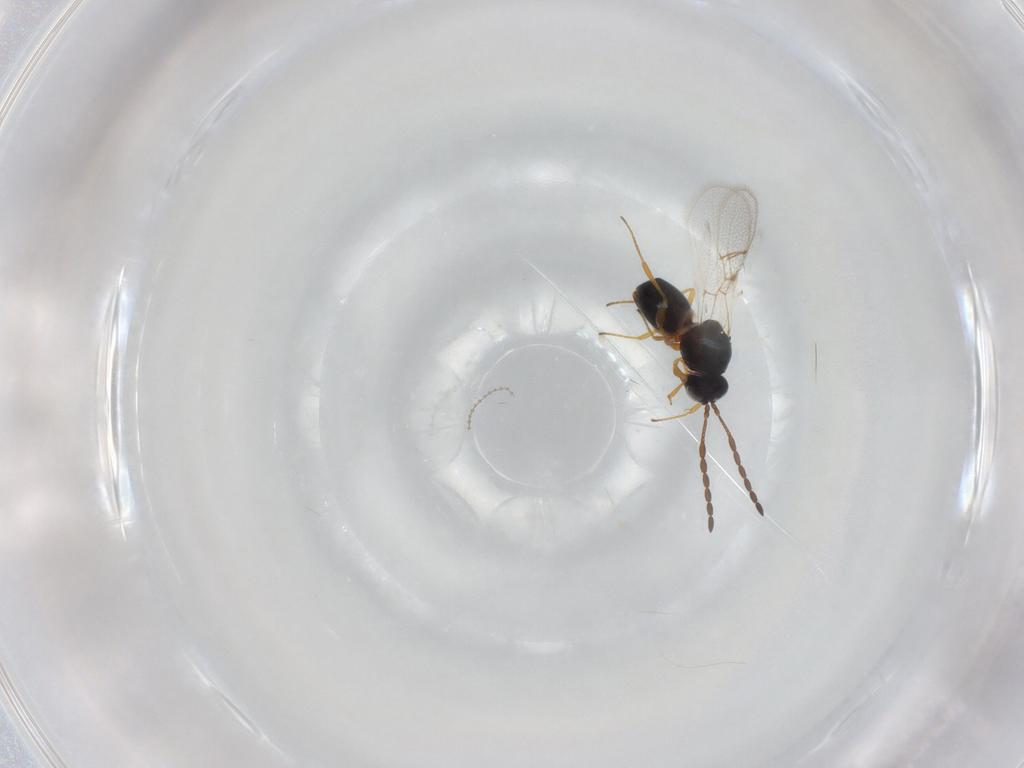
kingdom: Animalia
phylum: Arthropoda
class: Insecta
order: Hymenoptera
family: Figitidae
